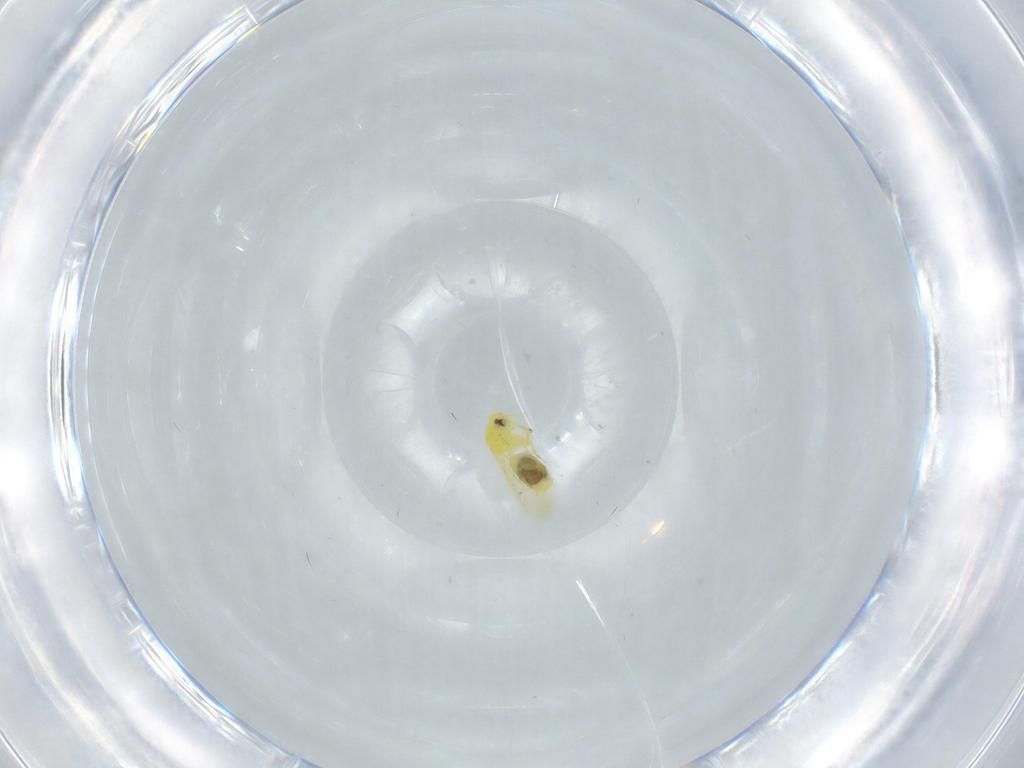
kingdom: Animalia
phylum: Arthropoda
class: Insecta
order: Hemiptera
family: Aleyrodidae
